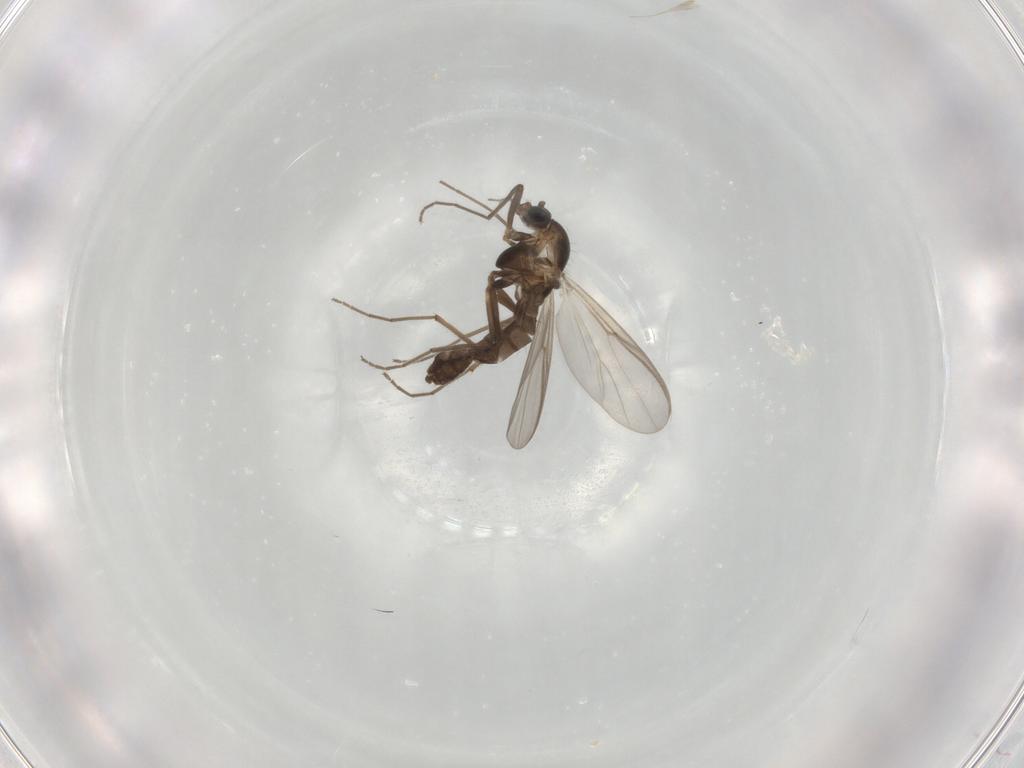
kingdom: Animalia
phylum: Arthropoda
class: Insecta
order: Diptera
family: Chironomidae
